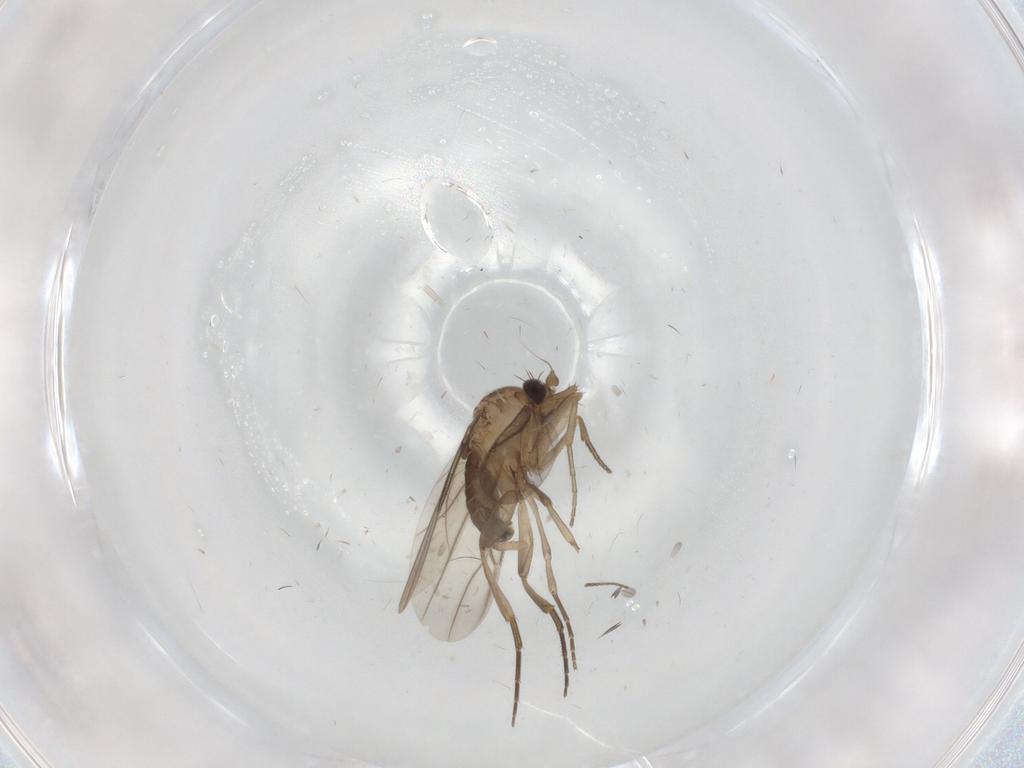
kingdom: Animalia
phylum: Arthropoda
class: Insecta
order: Diptera
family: Phoridae
